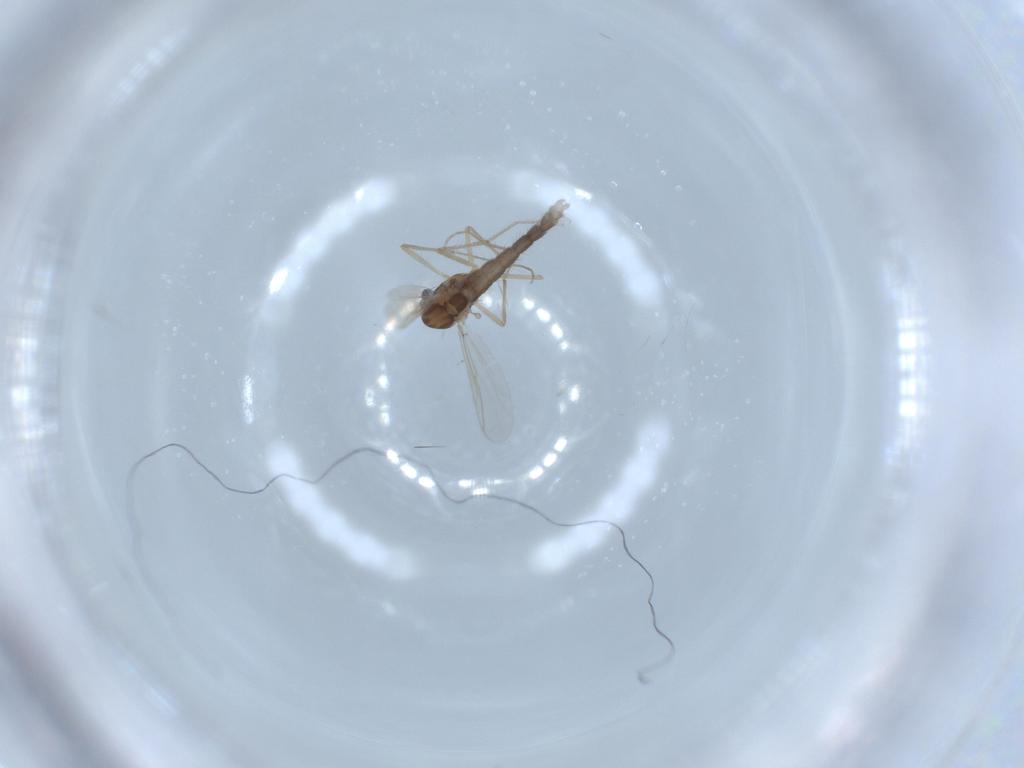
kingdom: Animalia
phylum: Arthropoda
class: Insecta
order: Diptera
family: Chironomidae
